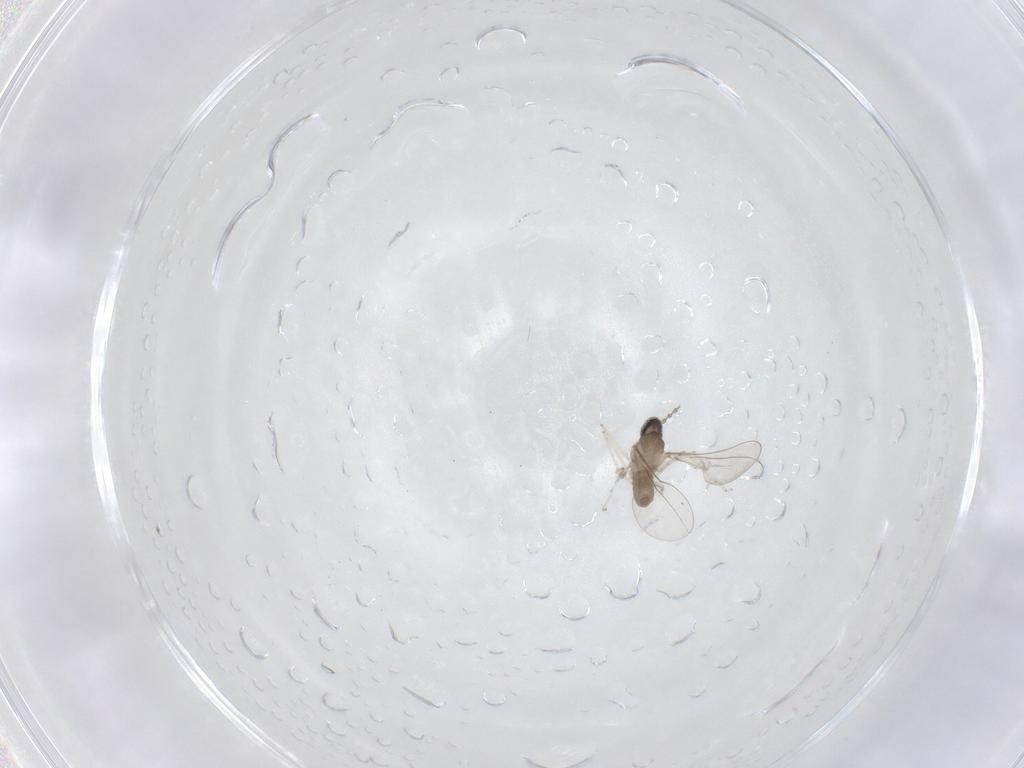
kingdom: Animalia
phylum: Arthropoda
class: Insecta
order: Diptera
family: Cecidomyiidae
